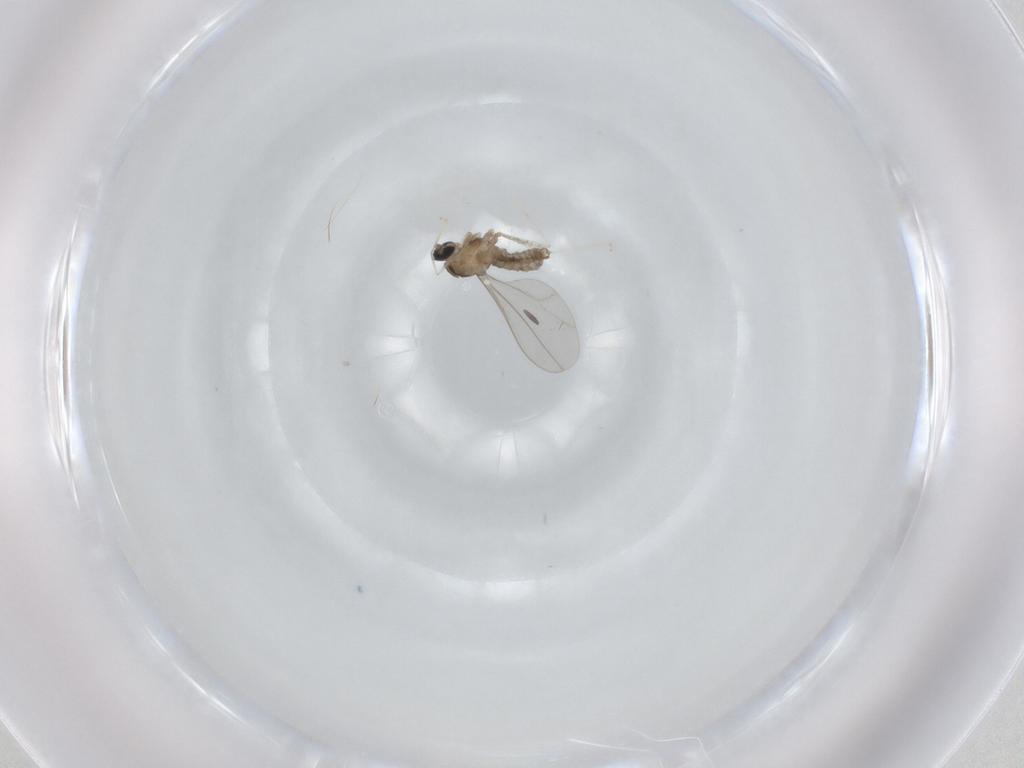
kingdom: Animalia
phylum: Arthropoda
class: Insecta
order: Diptera
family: Cecidomyiidae
